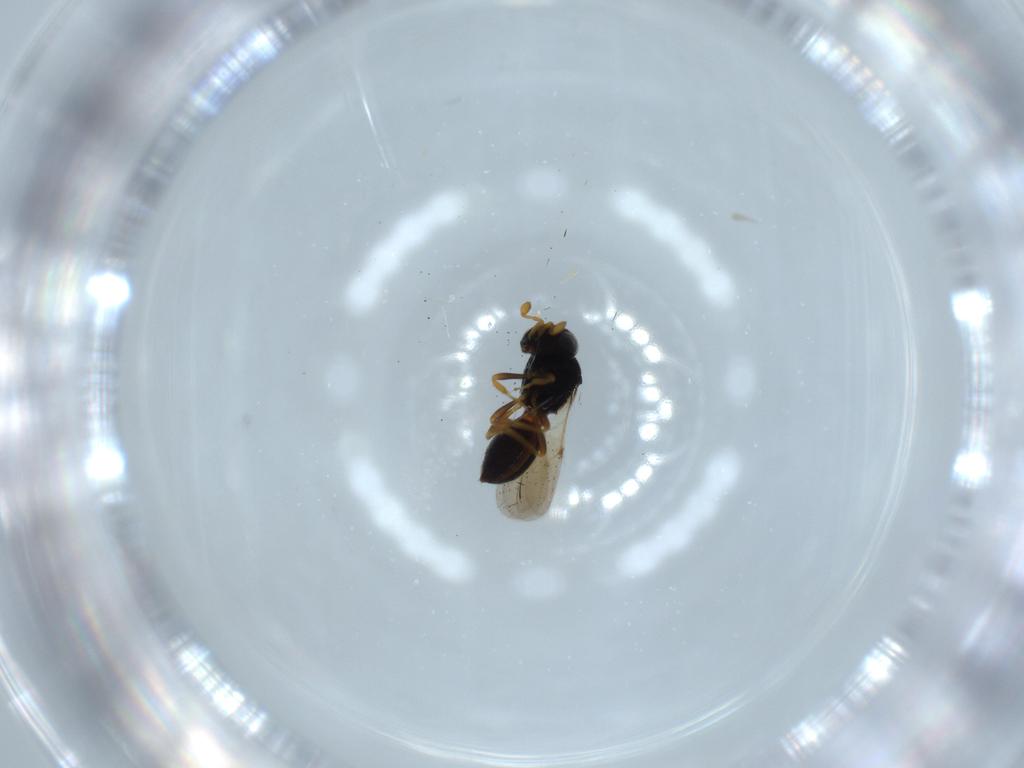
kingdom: Animalia
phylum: Arthropoda
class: Insecta
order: Hymenoptera
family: Scelionidae
